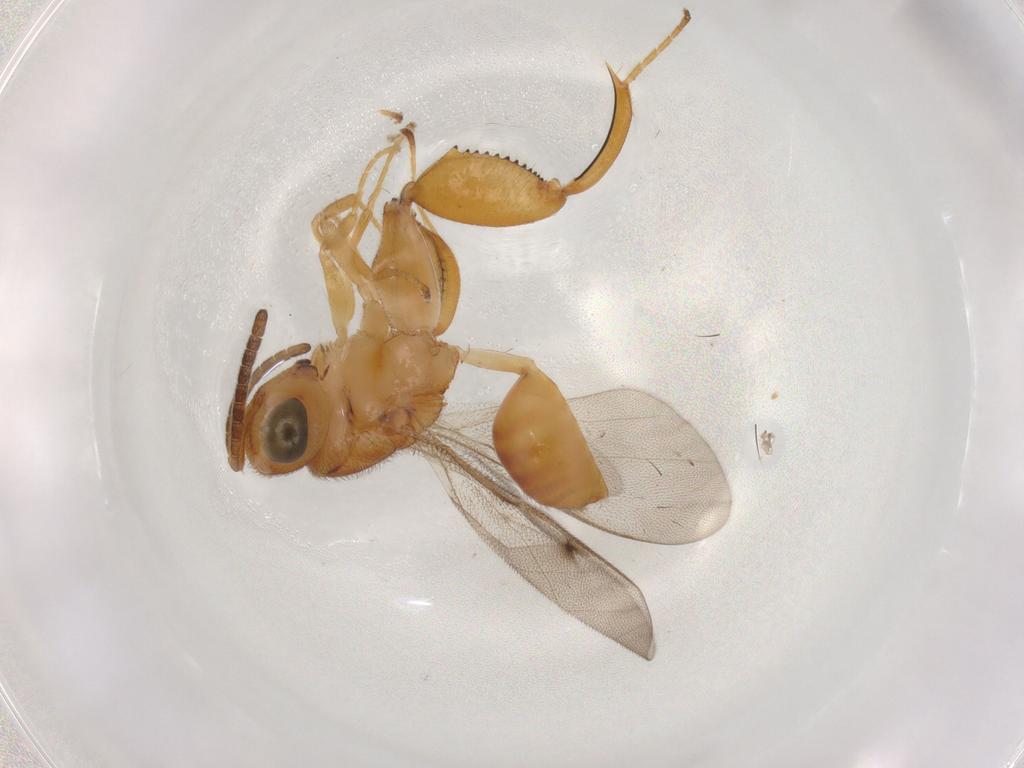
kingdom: Animalia
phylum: Arthropoda
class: Insecta
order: Hymenoptera
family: Chalcididae
